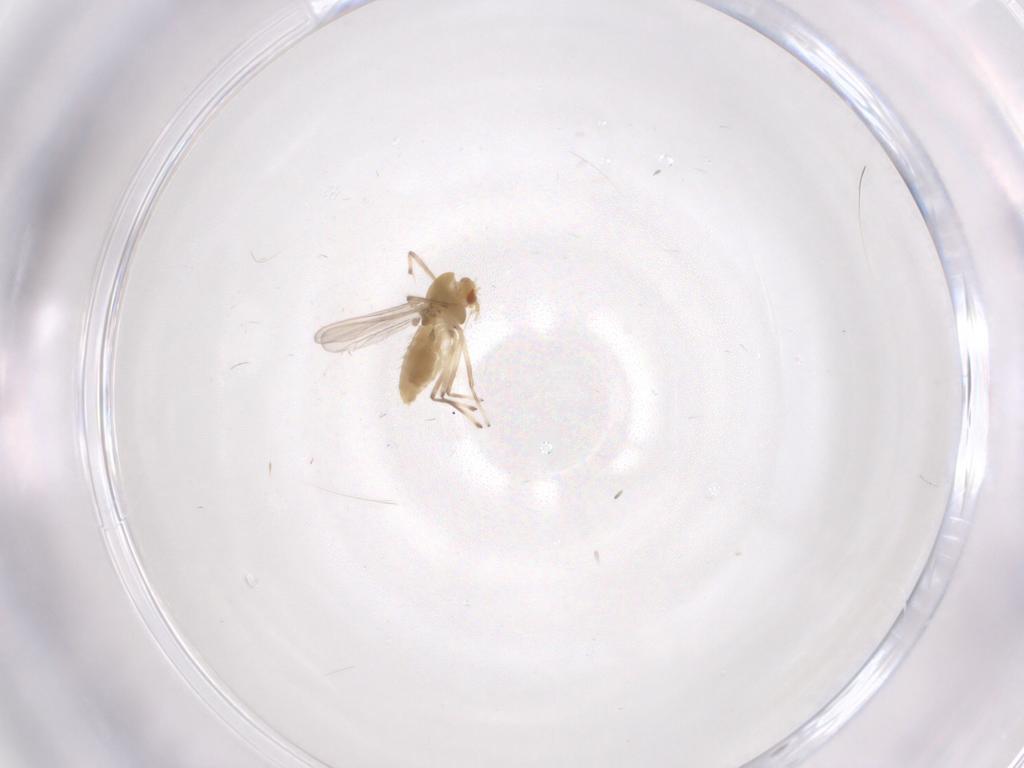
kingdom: Animalia
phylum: Arthropoda
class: Insecta
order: Diptera
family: Chironomidae
